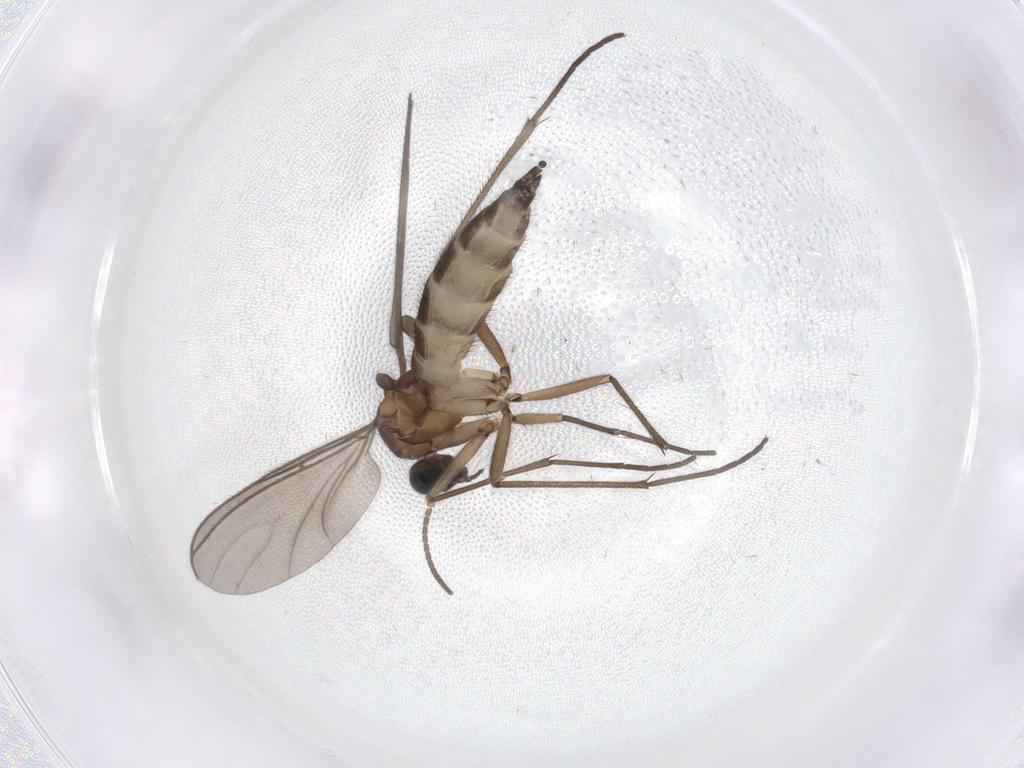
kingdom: Animalia
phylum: Arthropoda
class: Insecta
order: Diptera
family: Sciaridae
